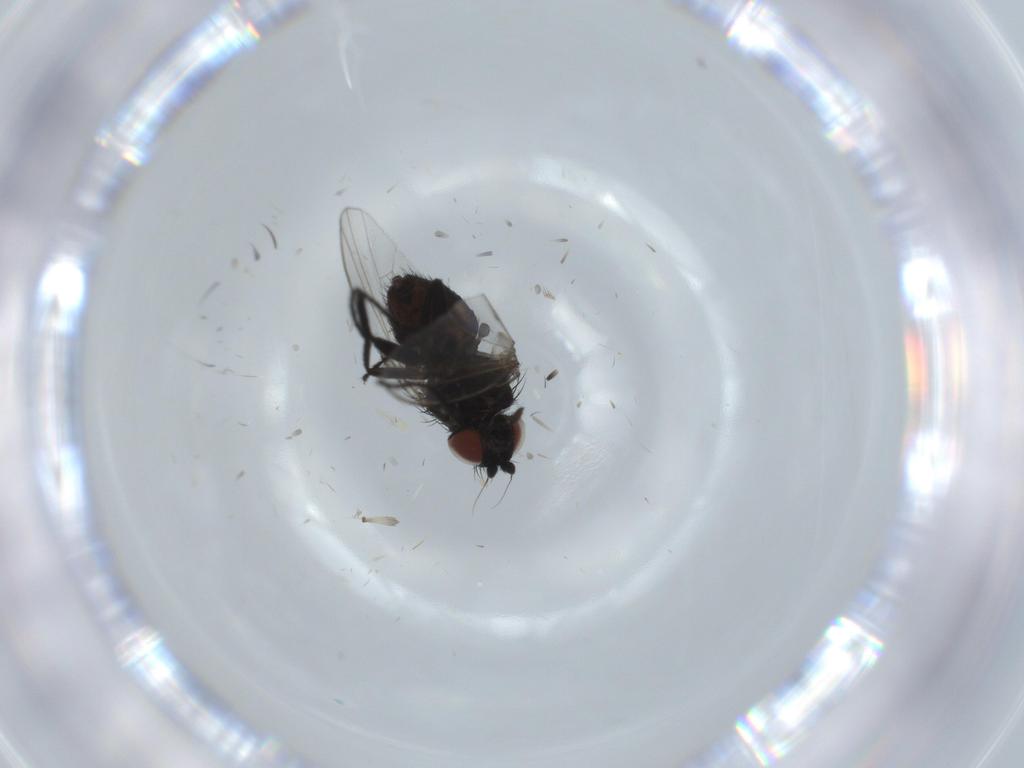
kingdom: Animalia
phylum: Arthropoda
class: Insecta
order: Diptera
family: Milichiidae
